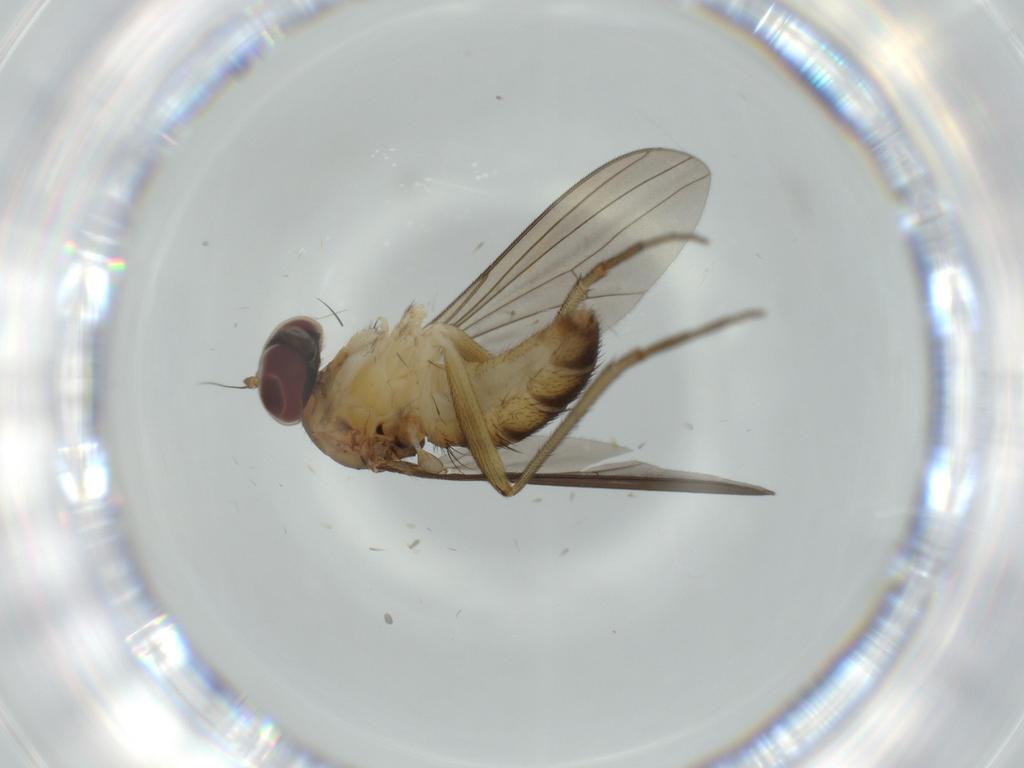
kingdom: Animalia
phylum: Arthropoda
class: Insecta
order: Diptera
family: Dolichopodidae
